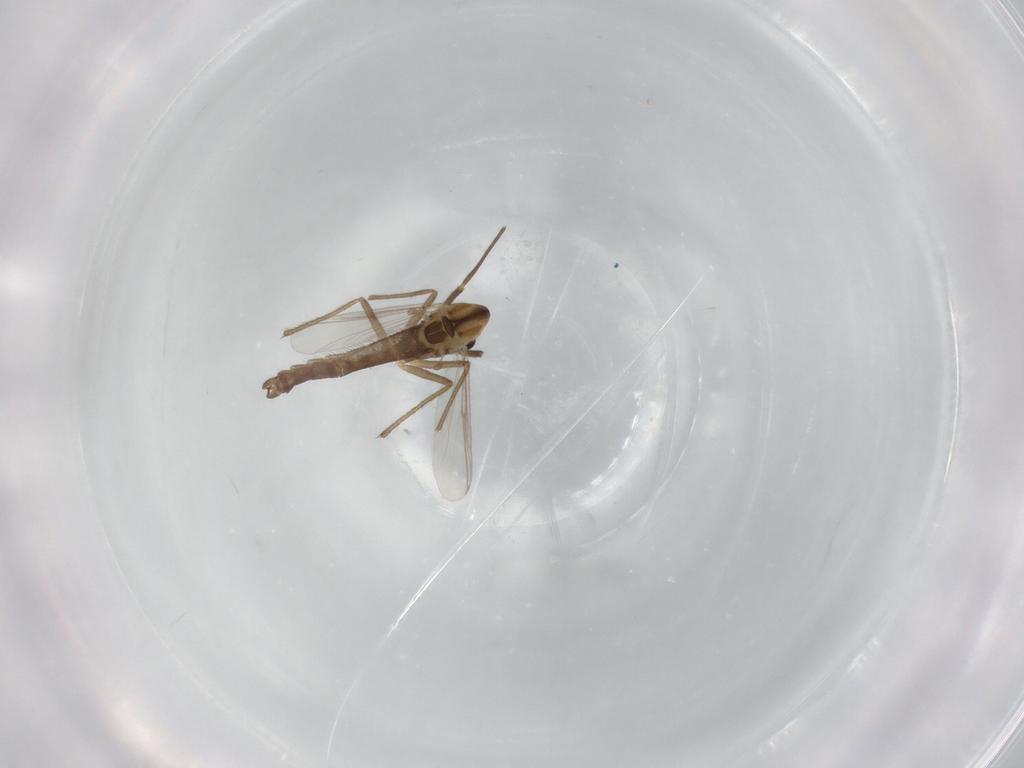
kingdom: Animalia
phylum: Arthropoda
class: Insecta
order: Diptera
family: Chironomidae
